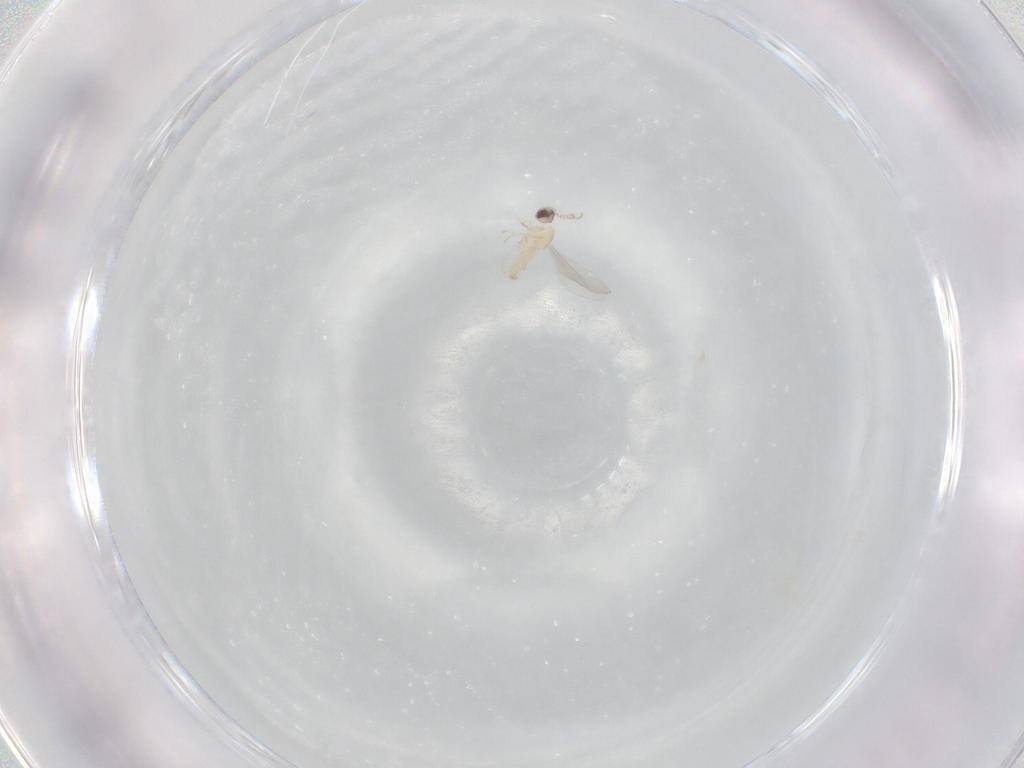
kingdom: Animalia
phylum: Arthropoda
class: Insecta
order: Diptera
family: Cecidomyiidae
